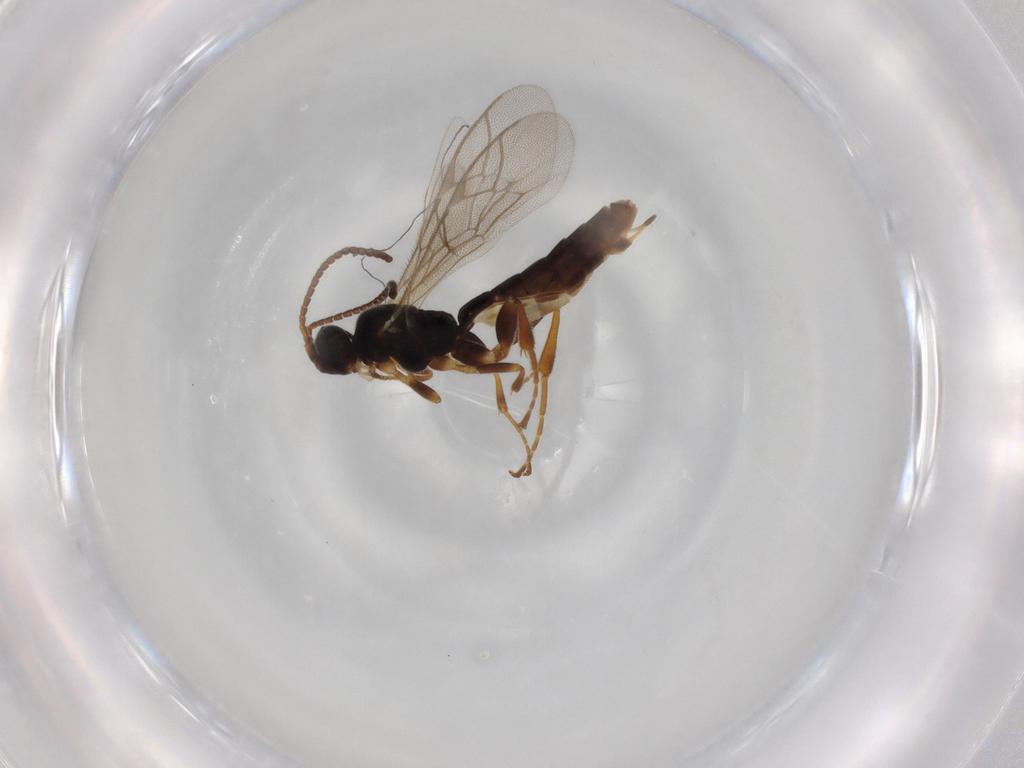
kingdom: Animalia
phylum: Arthropoda
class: Insecta
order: Hymenoptera
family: Ichneumonidae
